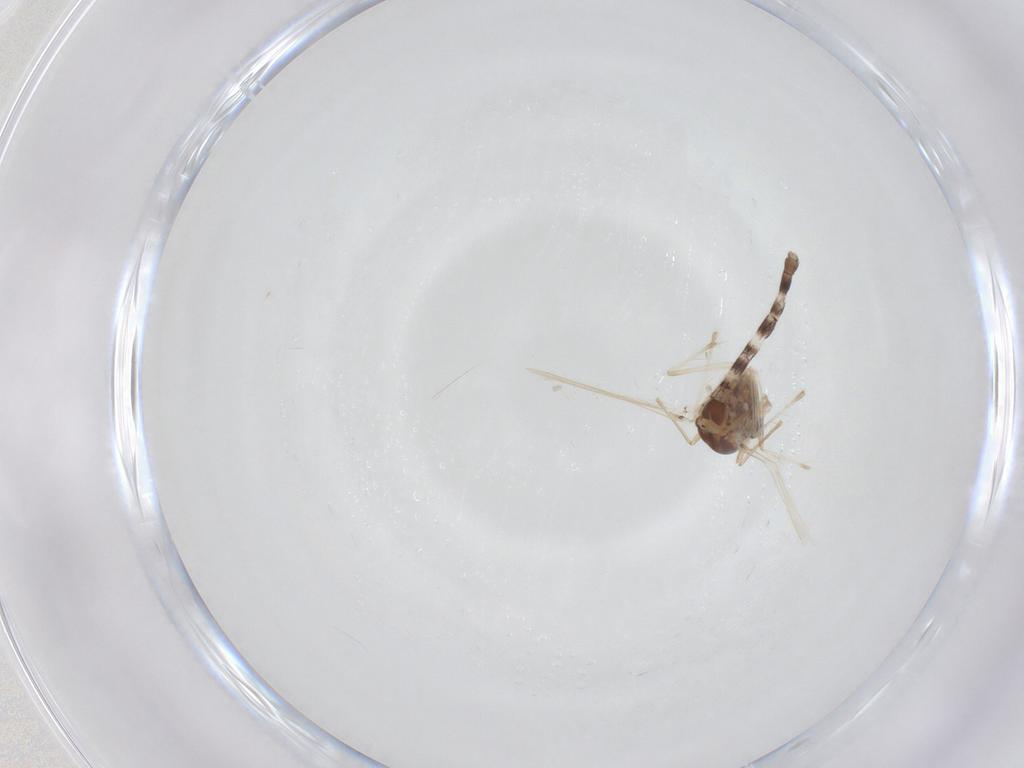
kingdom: Animalia
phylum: Arthropoda
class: Insecta
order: Diptera
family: Chironomidae
